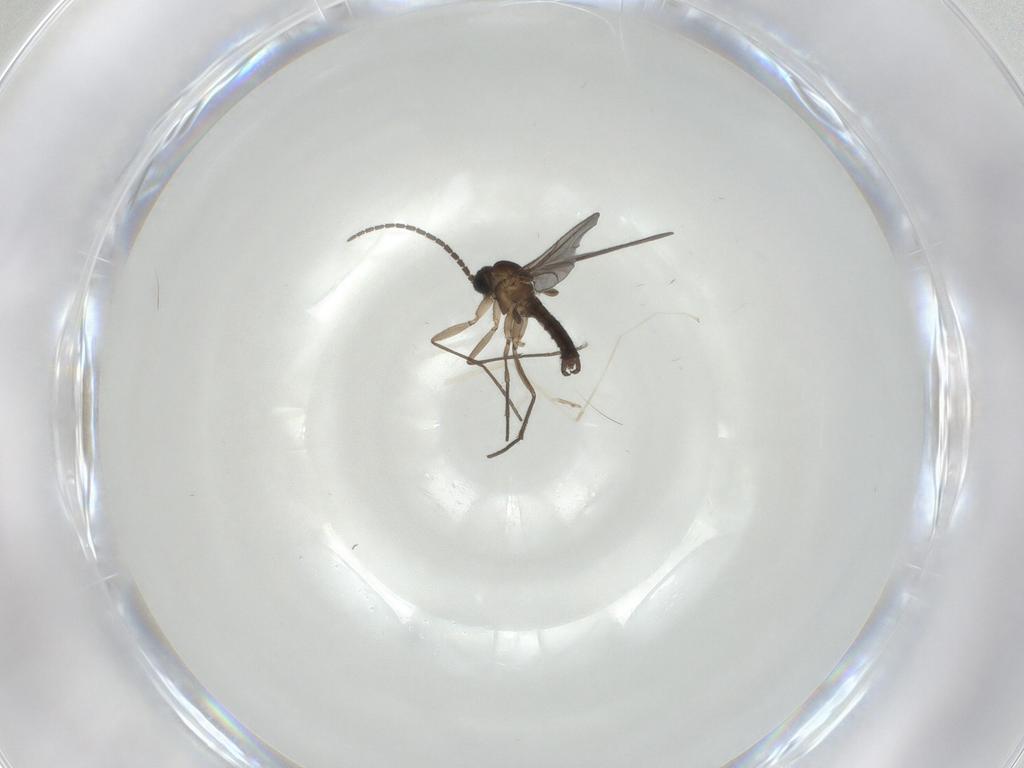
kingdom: Animalia
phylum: Arthropoda
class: Insecta
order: Diptera
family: Sciaridae
